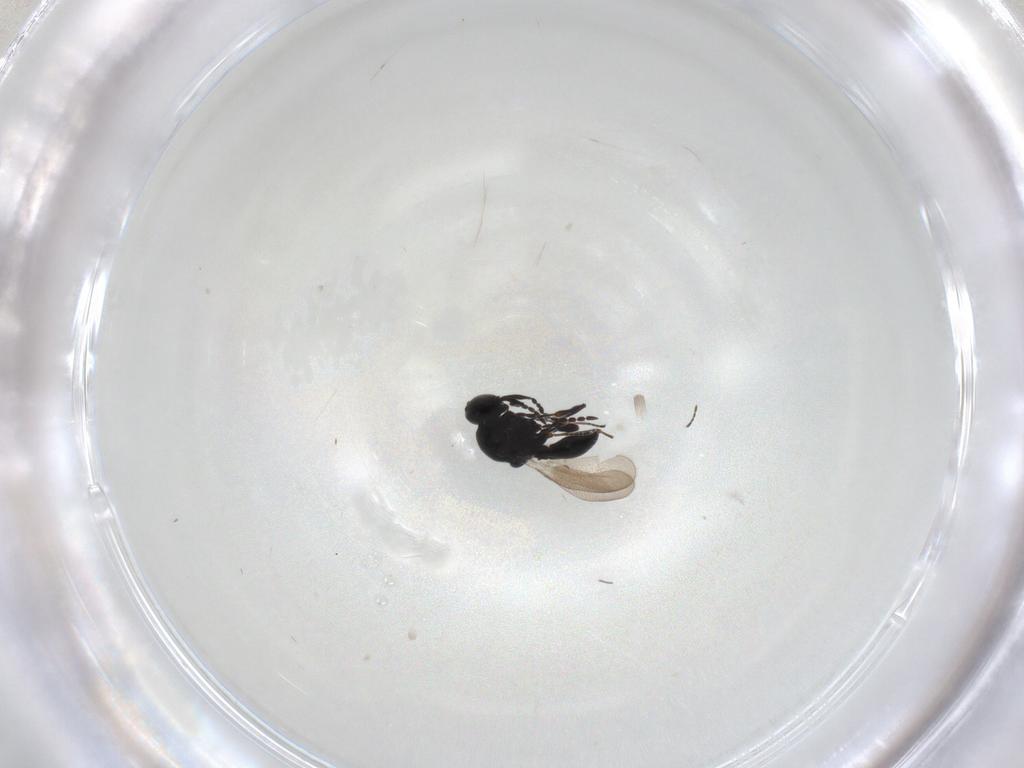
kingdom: Animalia
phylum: Arthropoda
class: Insecta
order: Hymenoptera
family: Platygastridae
